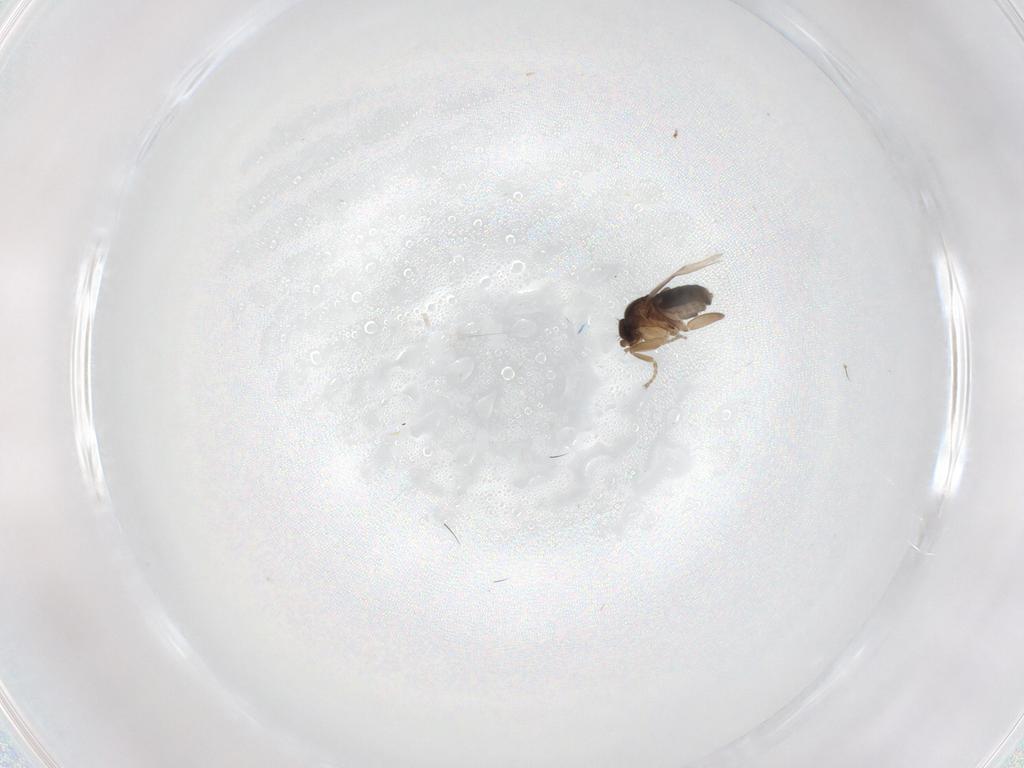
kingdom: Animalia
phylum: Arthropoda
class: Insecta
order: Diptera
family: Phoridae
